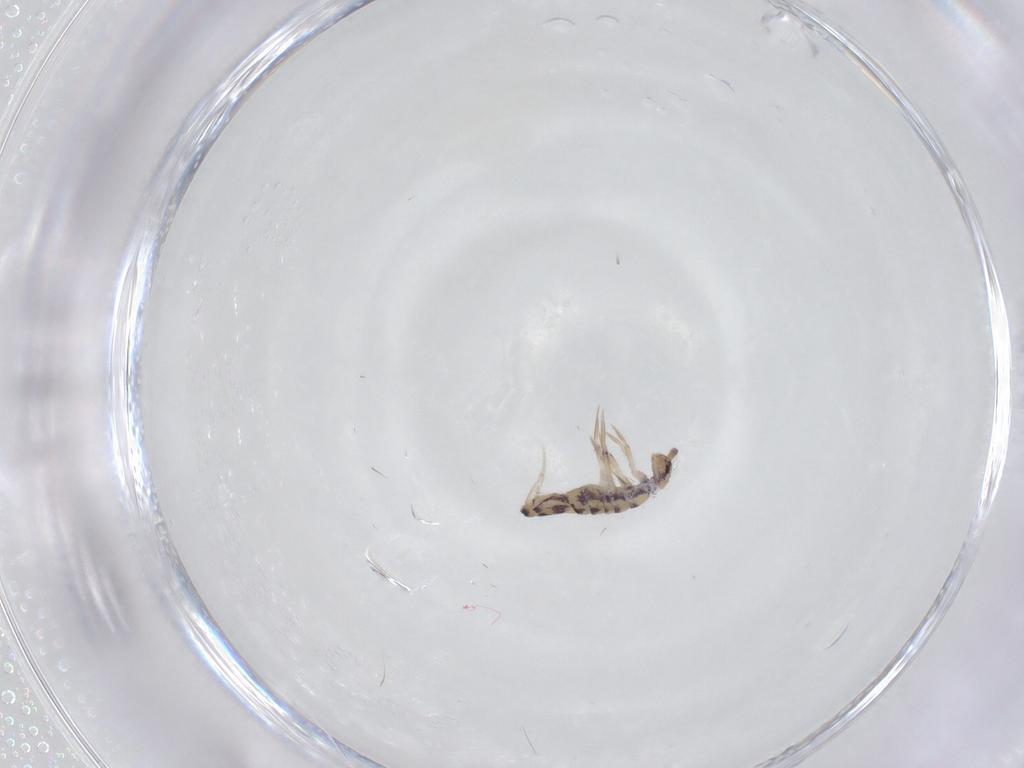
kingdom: Animalia
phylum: Arthropoda
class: Collembola
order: Entomobryomorpha
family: Entomobryidae
